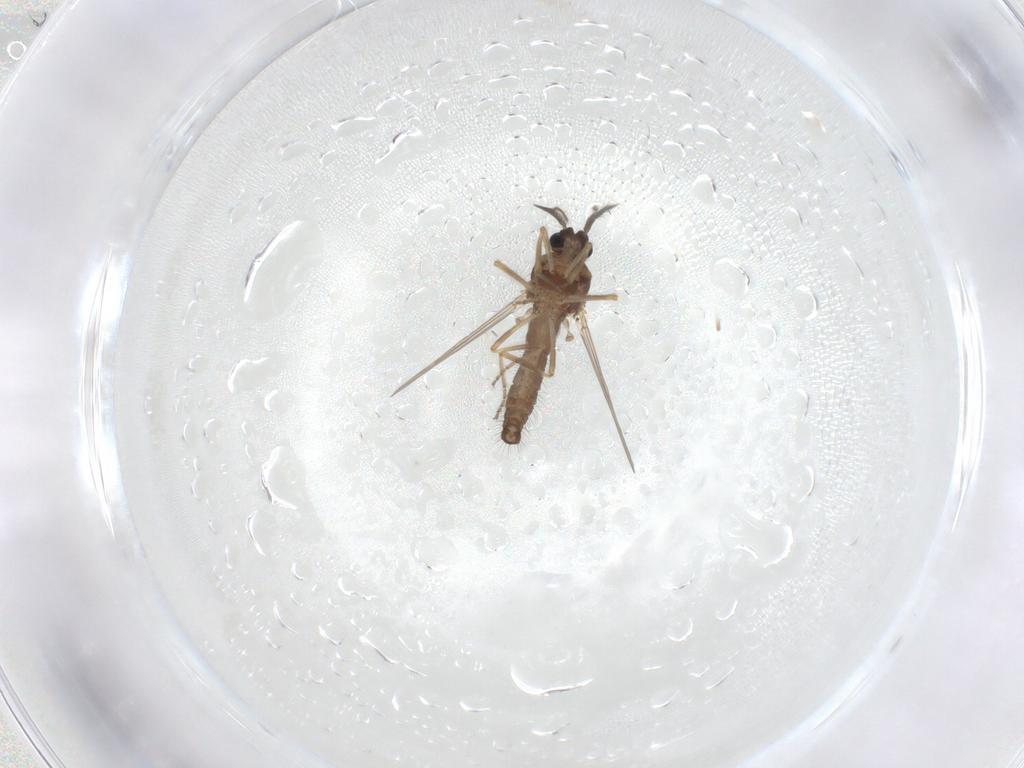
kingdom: Animalia
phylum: Arthropoda
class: Insecta
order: Diptera
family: Ceratopogonidae
